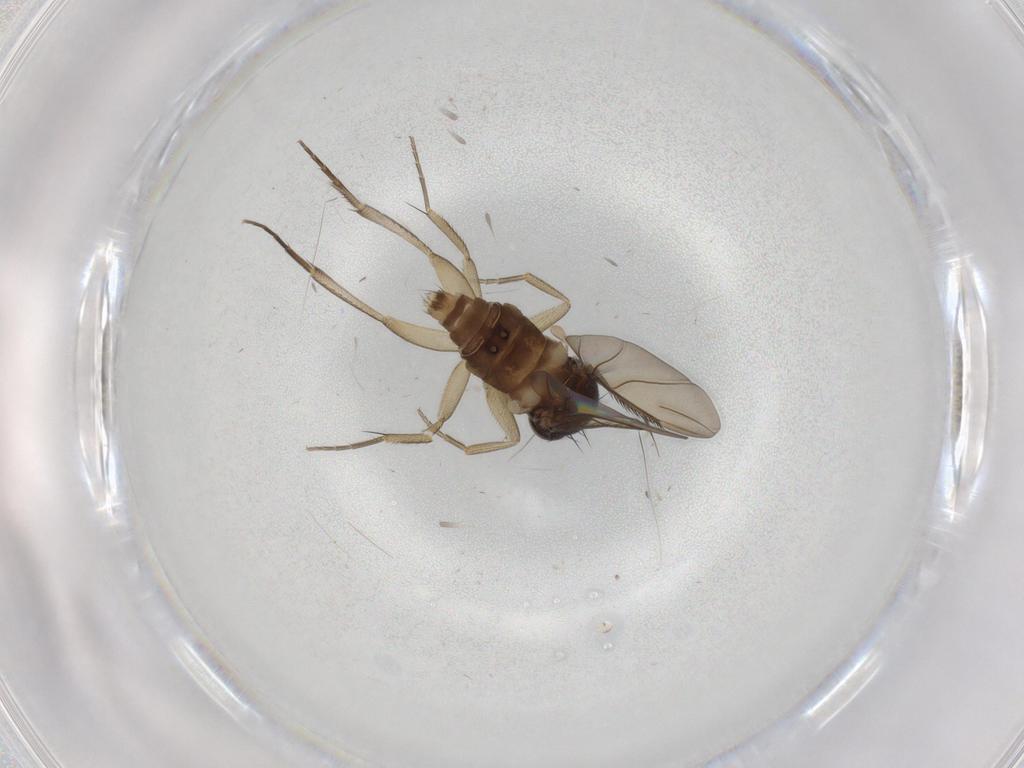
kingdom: Animalia
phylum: Arthropoda
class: Insecta
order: Diptera
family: Phoridae
